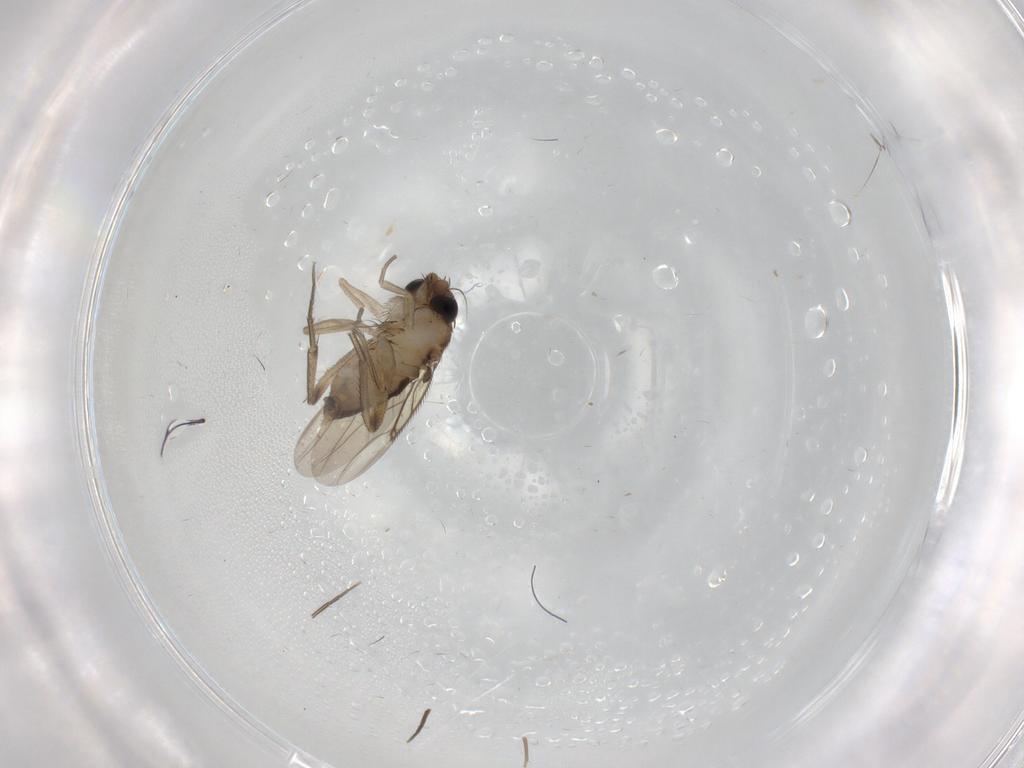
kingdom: Animalia
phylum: Arthropoda
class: Insecta
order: Diptera
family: Phoridae
